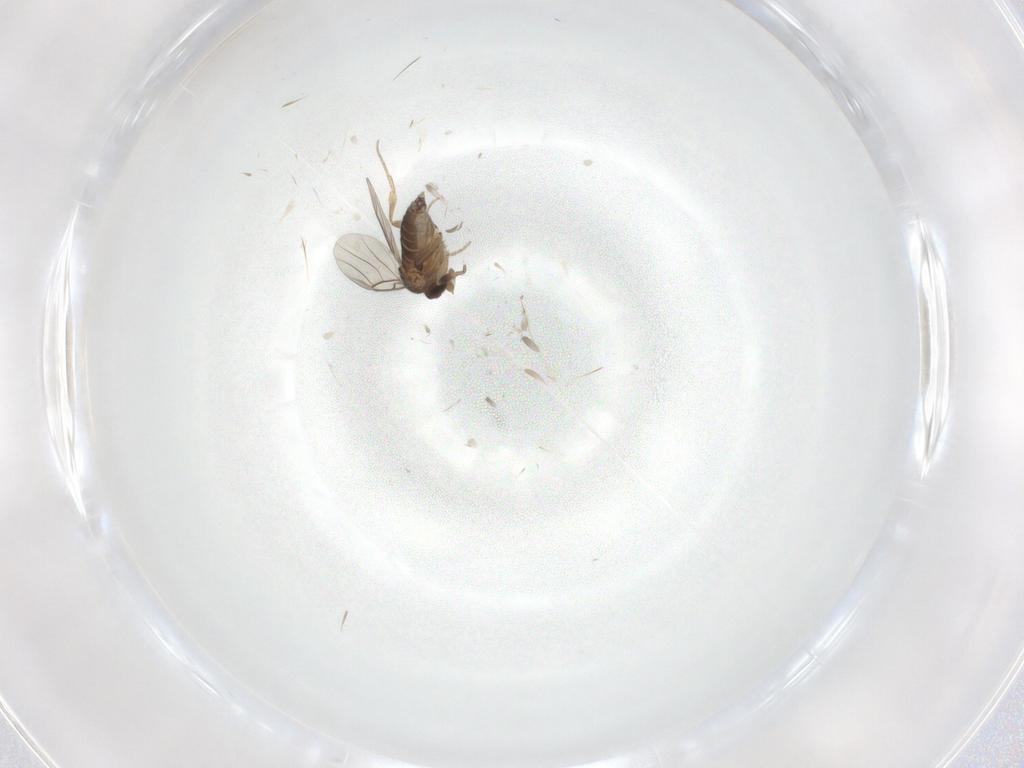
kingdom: Animalia
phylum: Arthropoda
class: Insecta
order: Diptera
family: Phoridae
